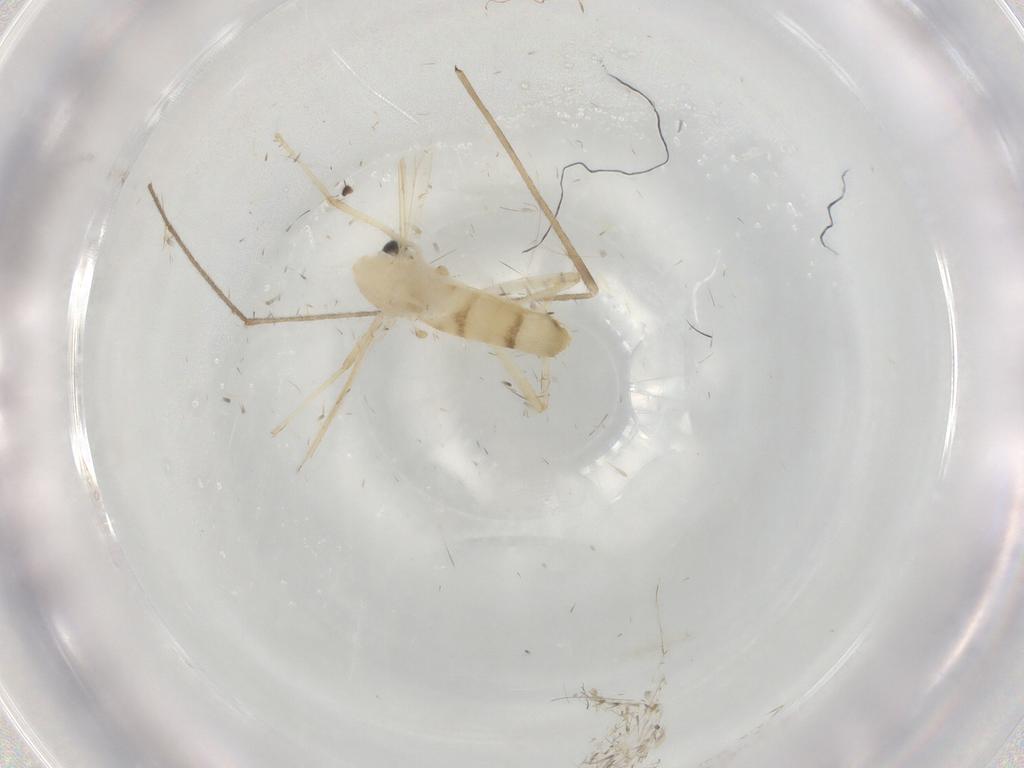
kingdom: Animalia
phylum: Arthropoda
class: Insecta
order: Diptera
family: Chironomidae
